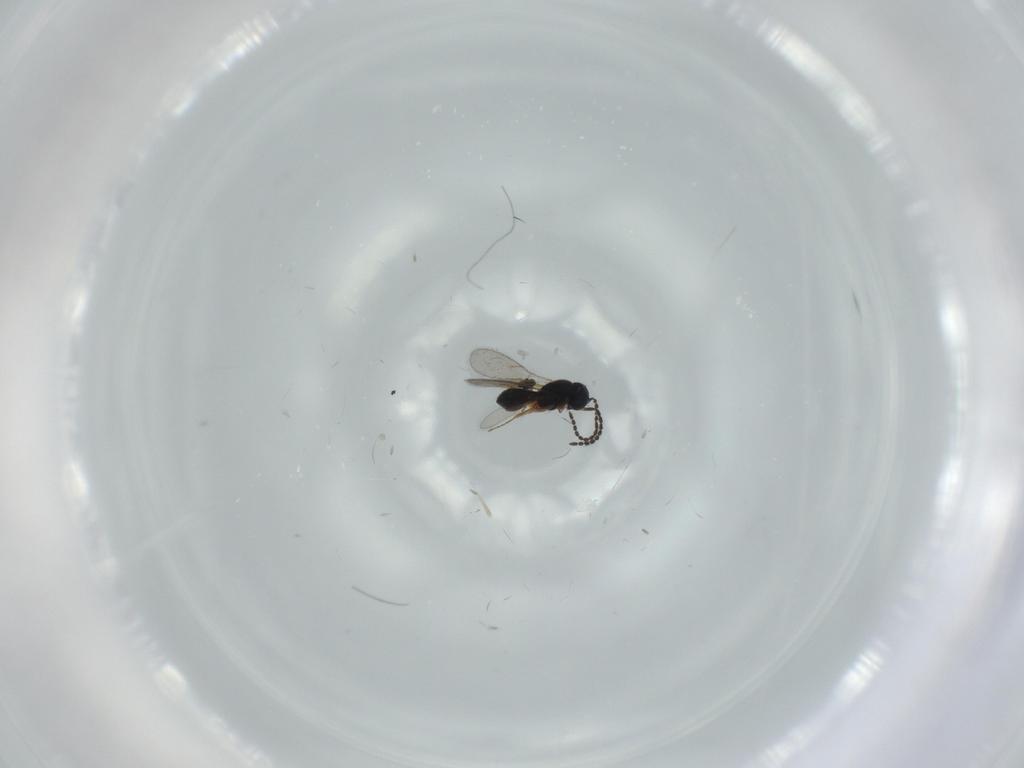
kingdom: Animalia
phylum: Arthropoda
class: Insecta
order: Hymenoptera
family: Scelionidae
